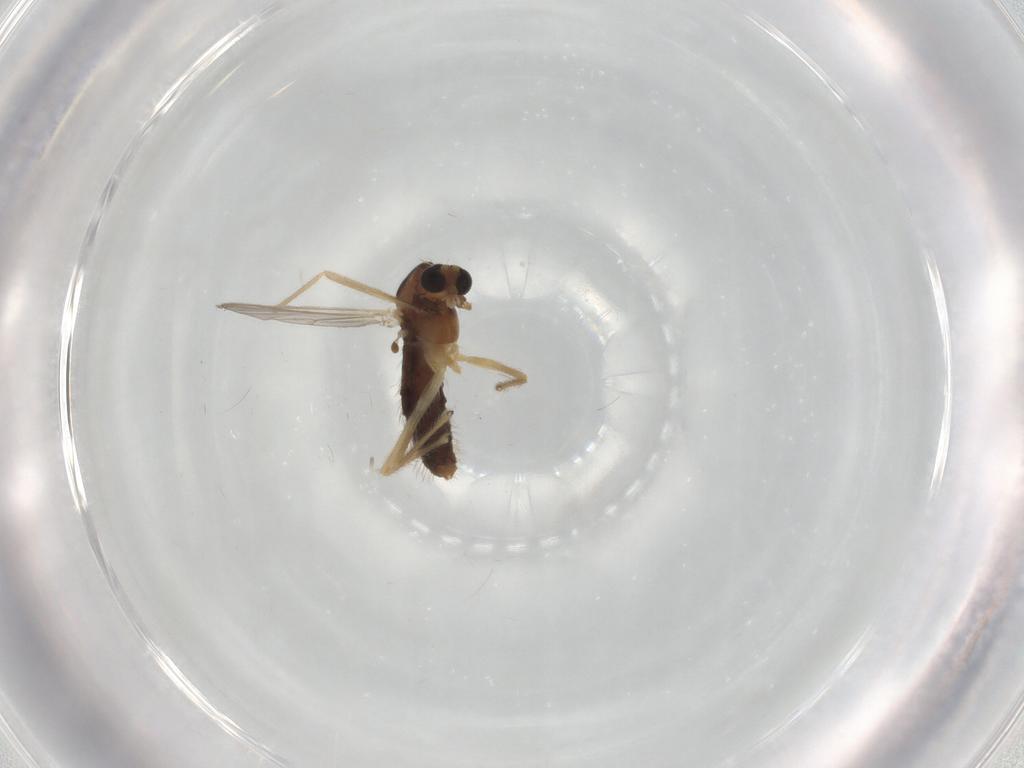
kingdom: Animalia
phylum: Arthropoda
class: Insecta
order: Diptera
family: Chironomidae
